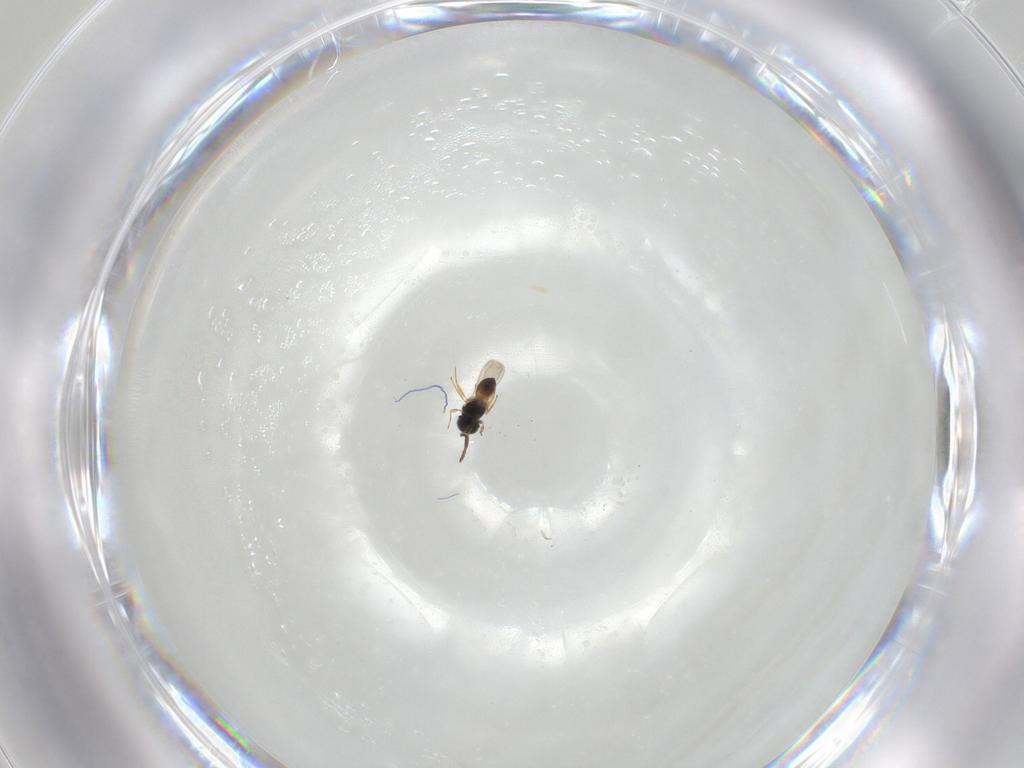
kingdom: Animalia
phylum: Arthropoda
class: Insecta
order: Hymenoptera
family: Scelionidae
